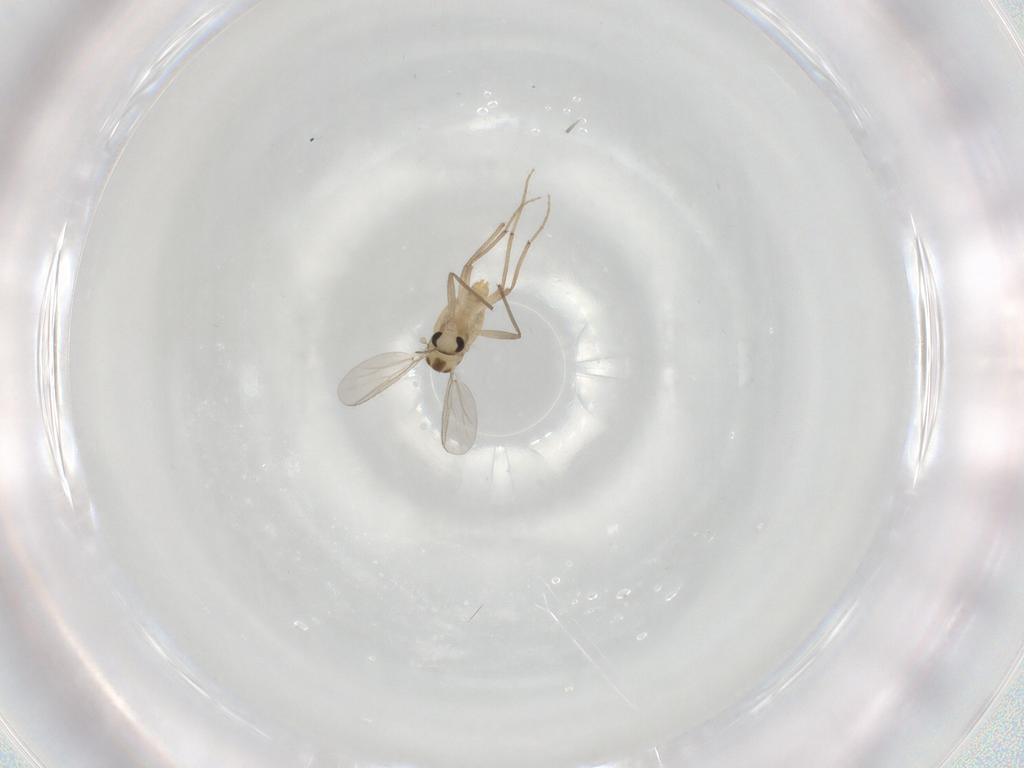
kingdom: Animalia
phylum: Arthropoda
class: Insecta
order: Diptera
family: Chironomidae
